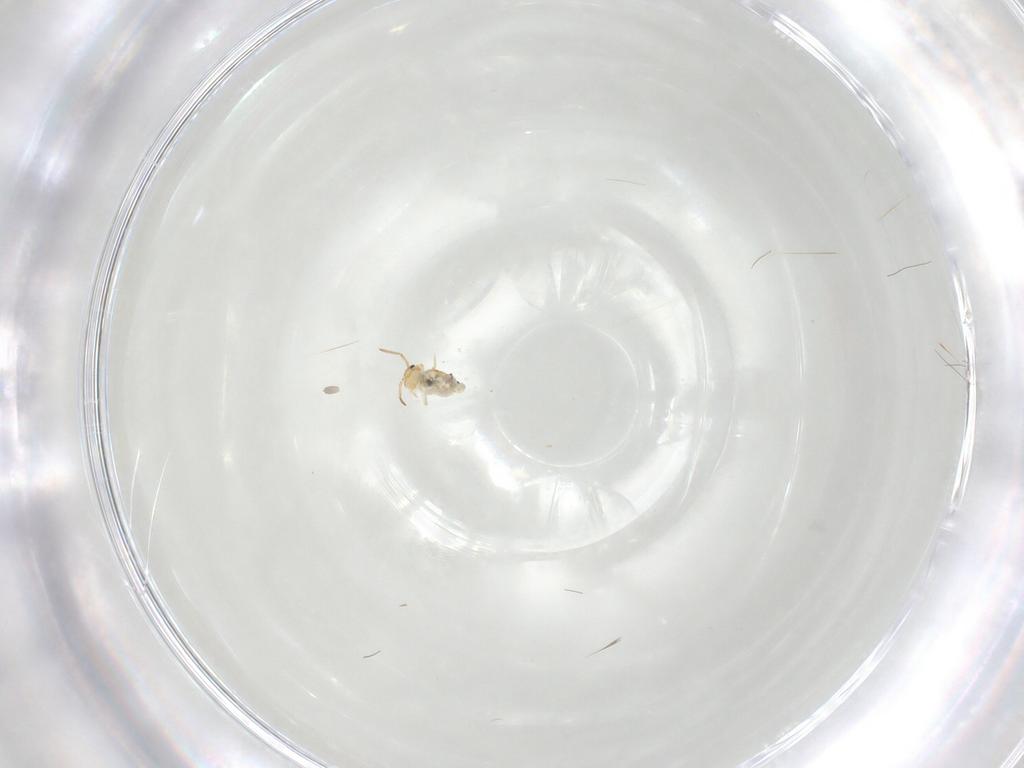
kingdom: Animalia
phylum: Arthropoda
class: Collembola
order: Symphypleona
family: Bourletiellidae
